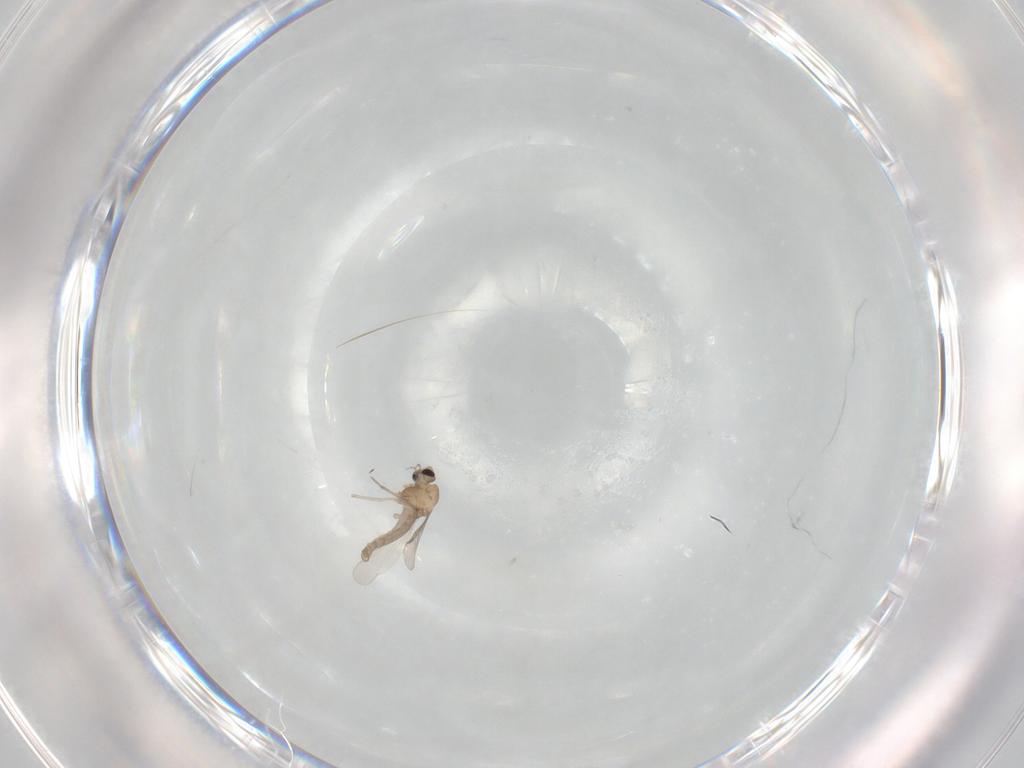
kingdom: Animalia
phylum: Arthropoda
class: Insecta
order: Diptera
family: Chironomidae
